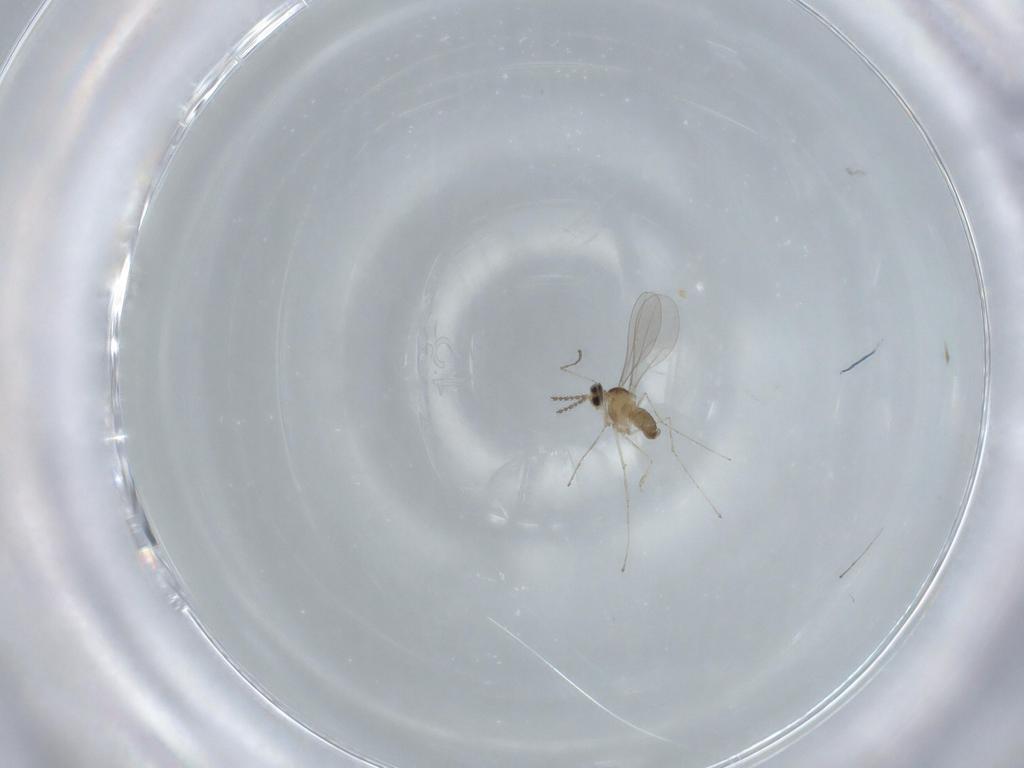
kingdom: Animalia
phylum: Arthropoda
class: Insecta
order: Diptera
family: Cecidomyiidae
